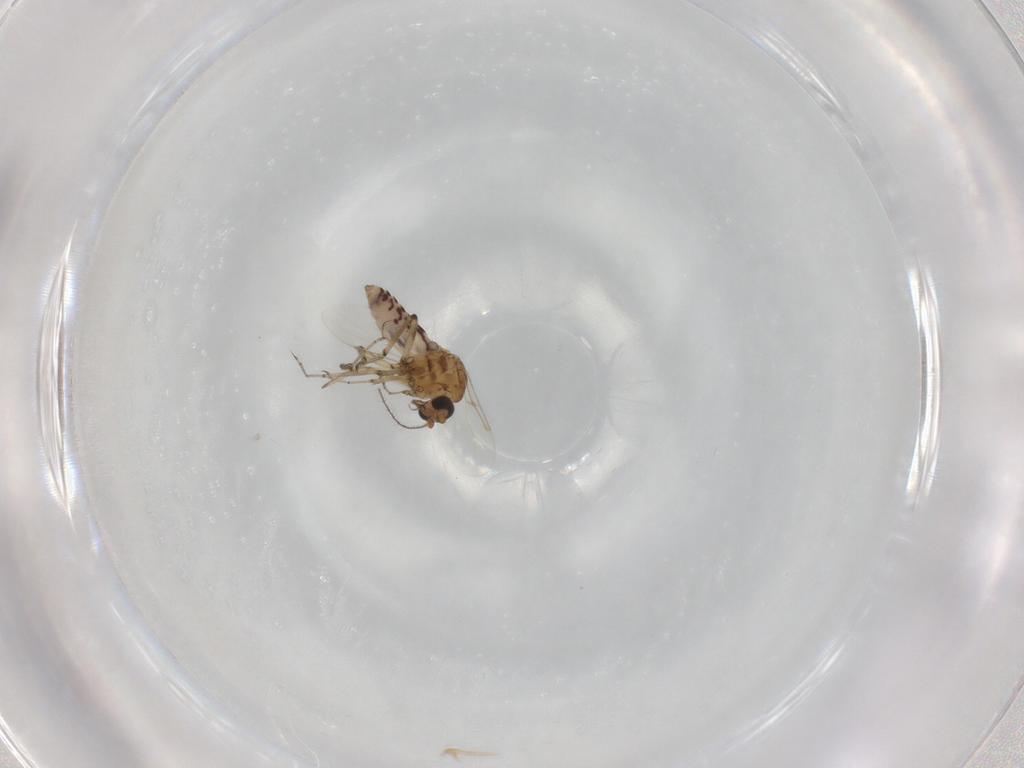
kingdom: Animalia
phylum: Arthropoda
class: Insecta
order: Diptera
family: Ceratopogonidae
